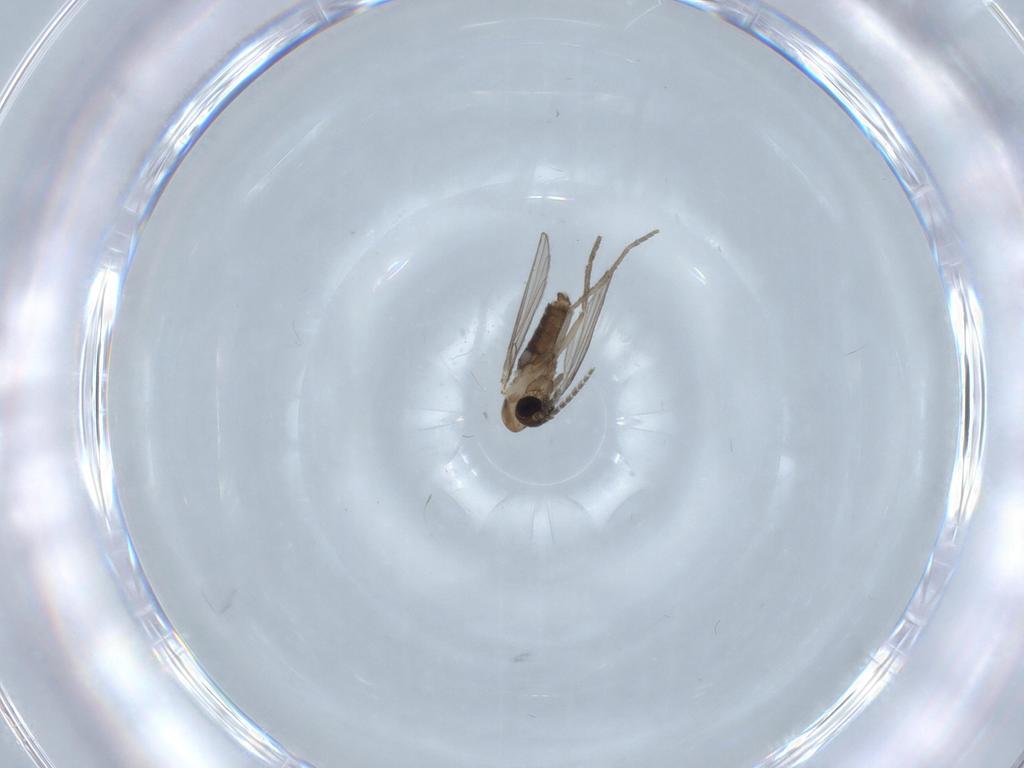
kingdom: Animalia
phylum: Arthropoda
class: Insecta
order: Diptera
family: Psychodidae
